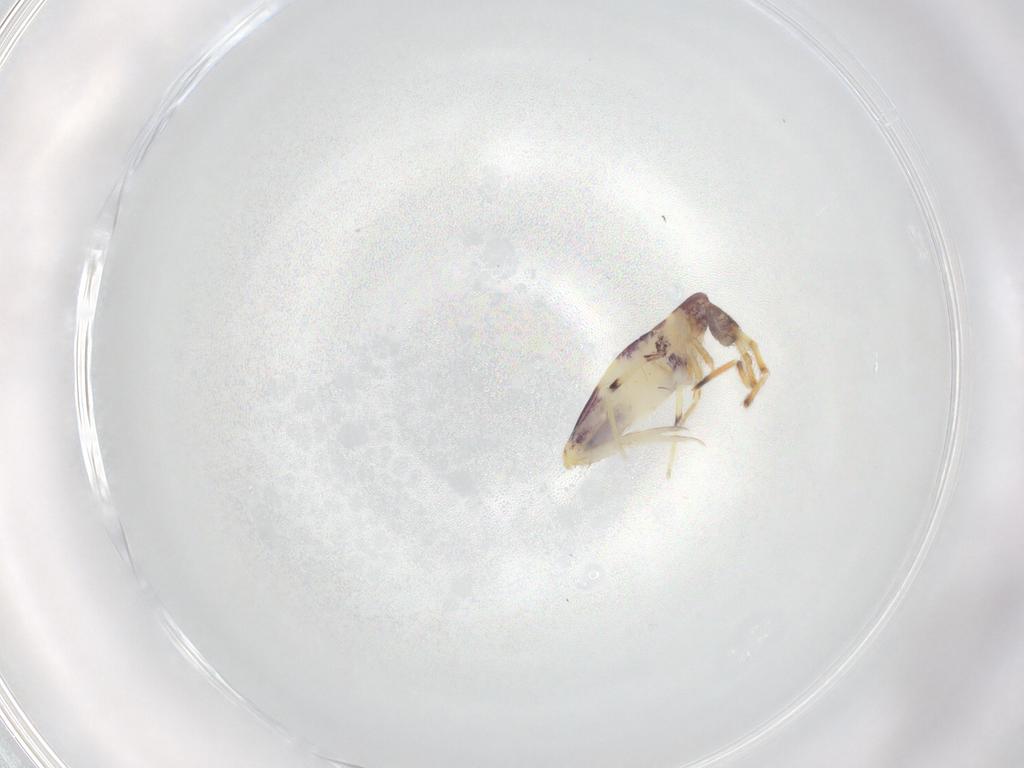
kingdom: Animalia
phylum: Arthropoda
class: Collembola
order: Entomobryomorpha
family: Entomobryidae
